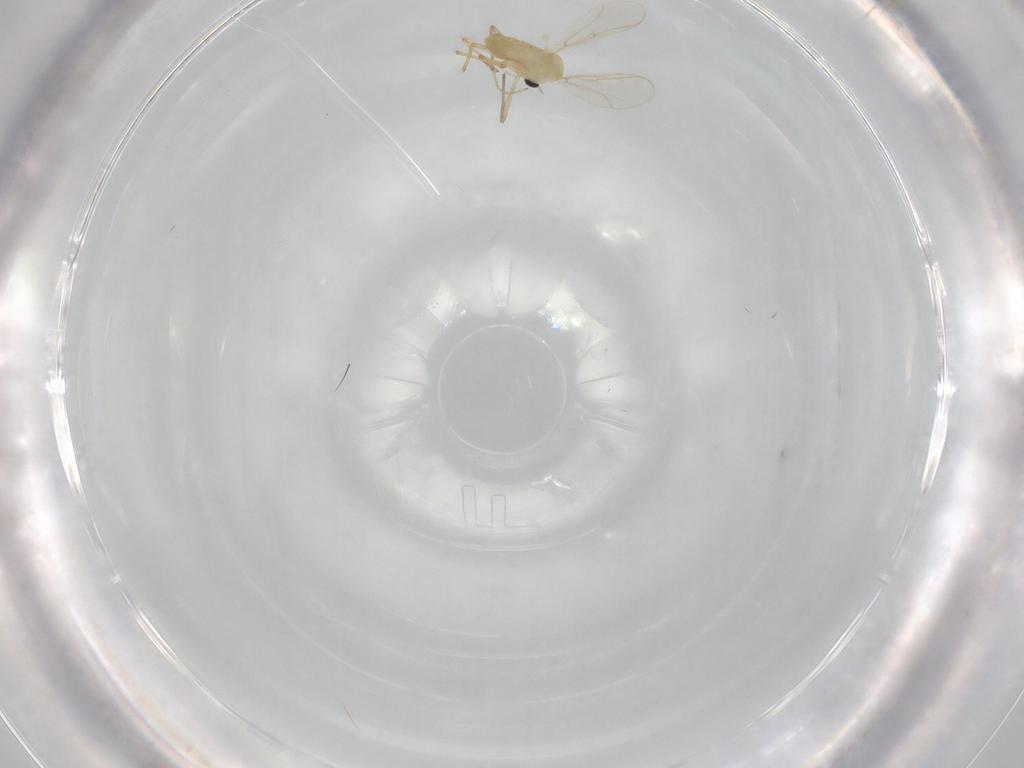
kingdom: Animalia
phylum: Arthropoda
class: Insecta
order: Diptera
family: Chironomidae
